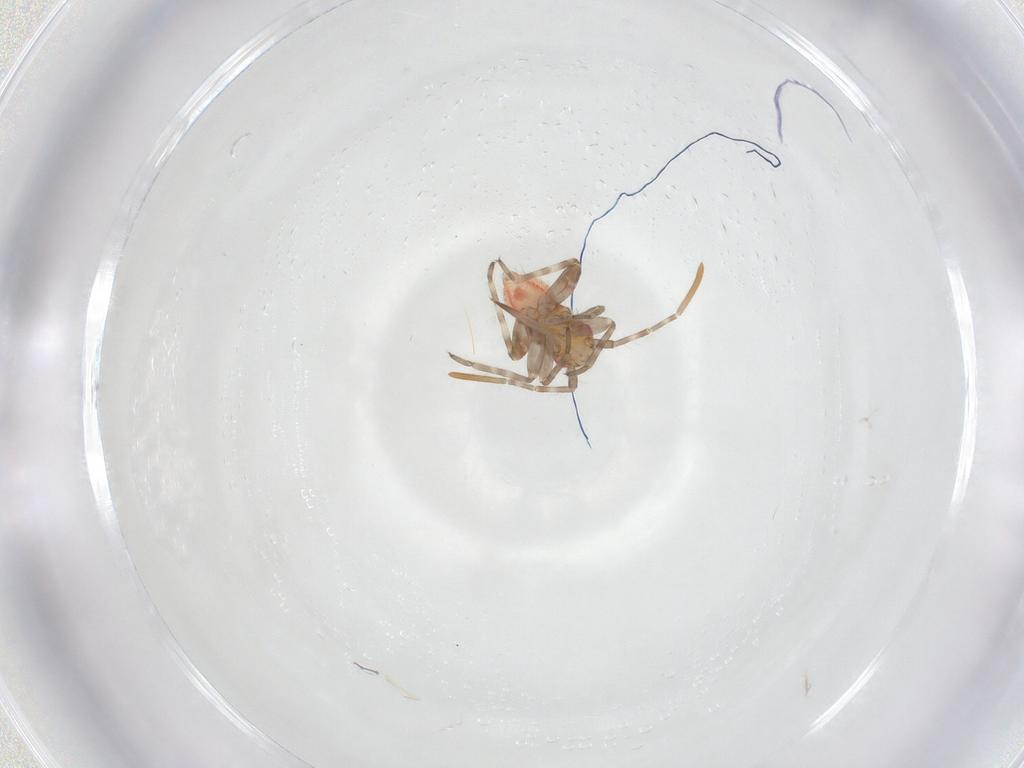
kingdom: Animalia
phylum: Arthropoda
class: Insecta
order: Hemiptera
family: Miridae
